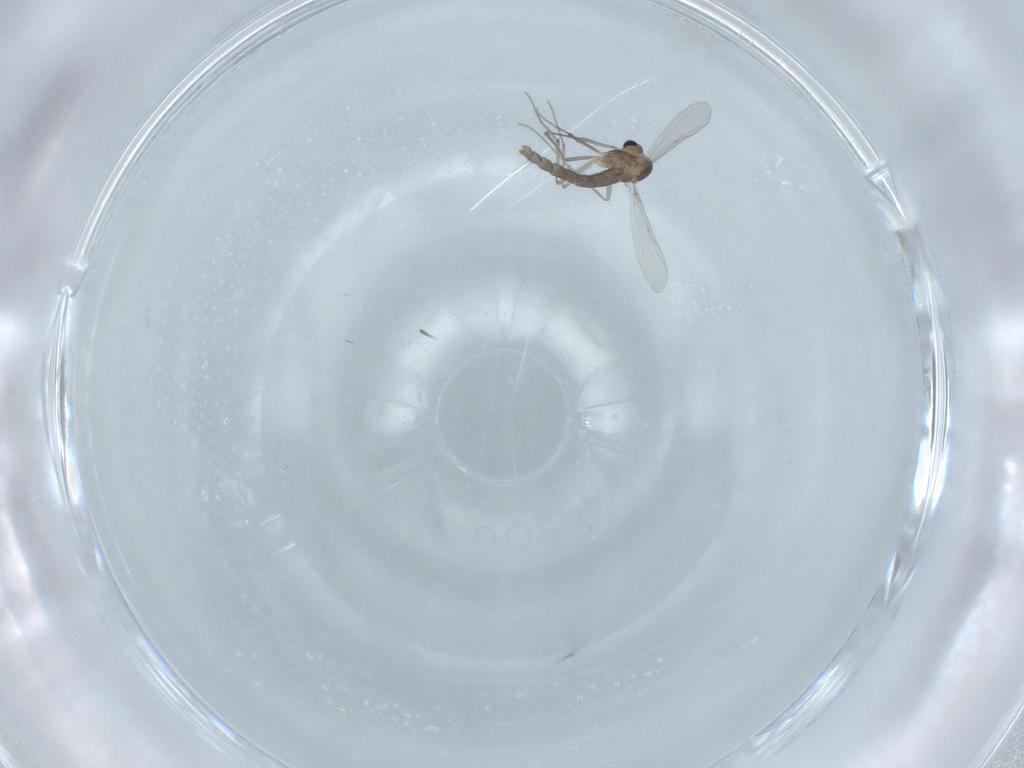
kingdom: Animalia
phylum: Arthropoda
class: Insecta
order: Diptera
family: Chironomidae
